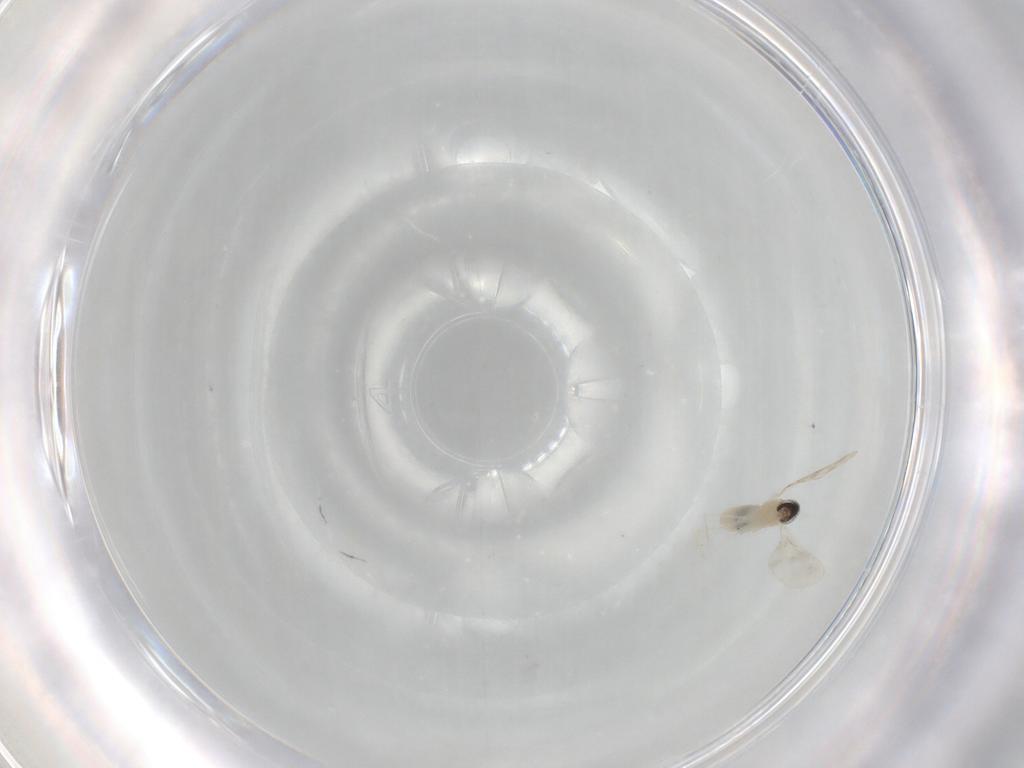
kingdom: Animalia
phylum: Arthropoda
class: Insecta
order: Diptera
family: Cecidomyiidae
